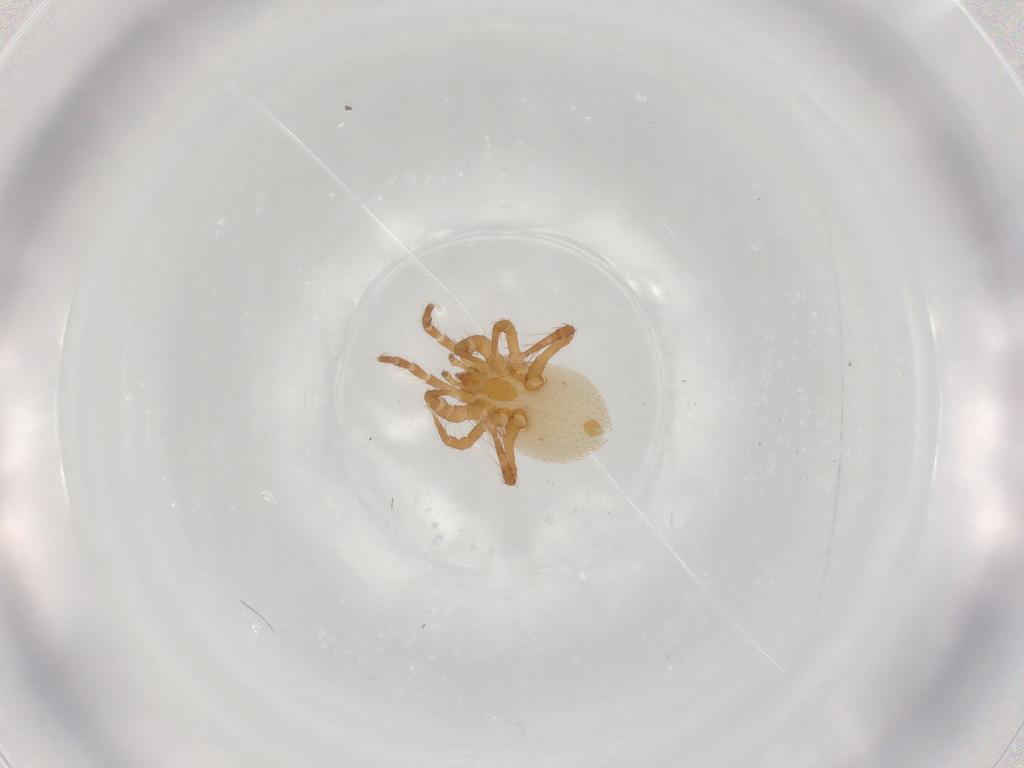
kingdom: Animalia
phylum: Arthropoda
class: Arachnida
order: Mesostigmata
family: Parasitidae
